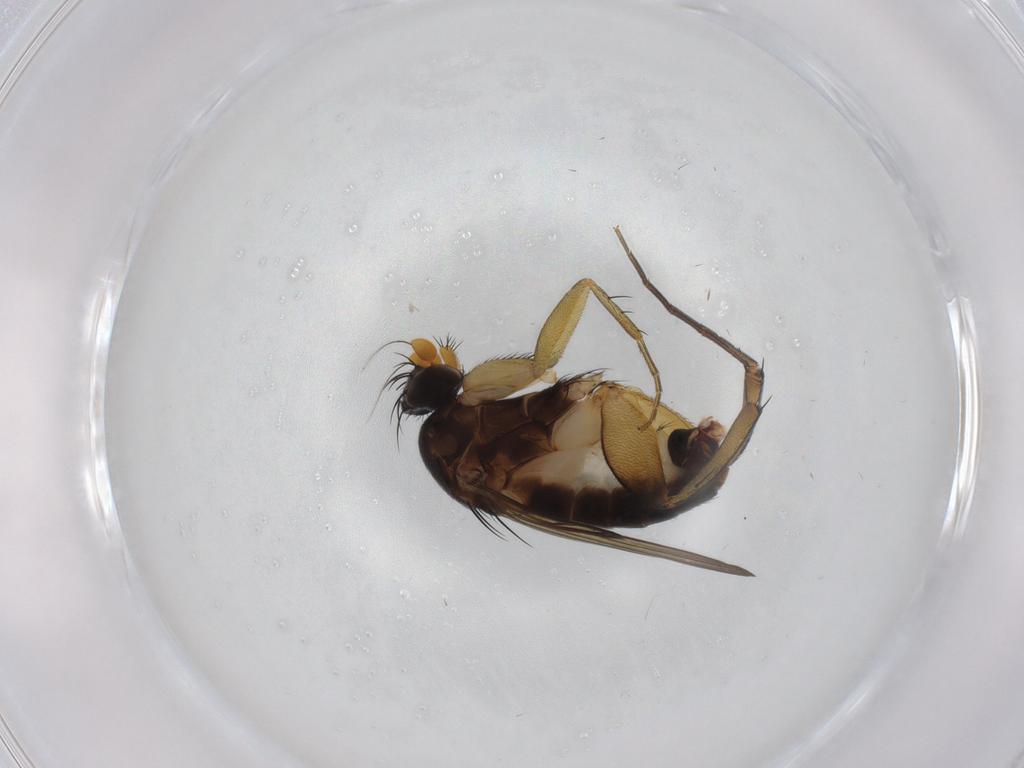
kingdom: Animalia
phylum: Arthropoda
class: Insecta
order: Diptera
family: Phoridae
